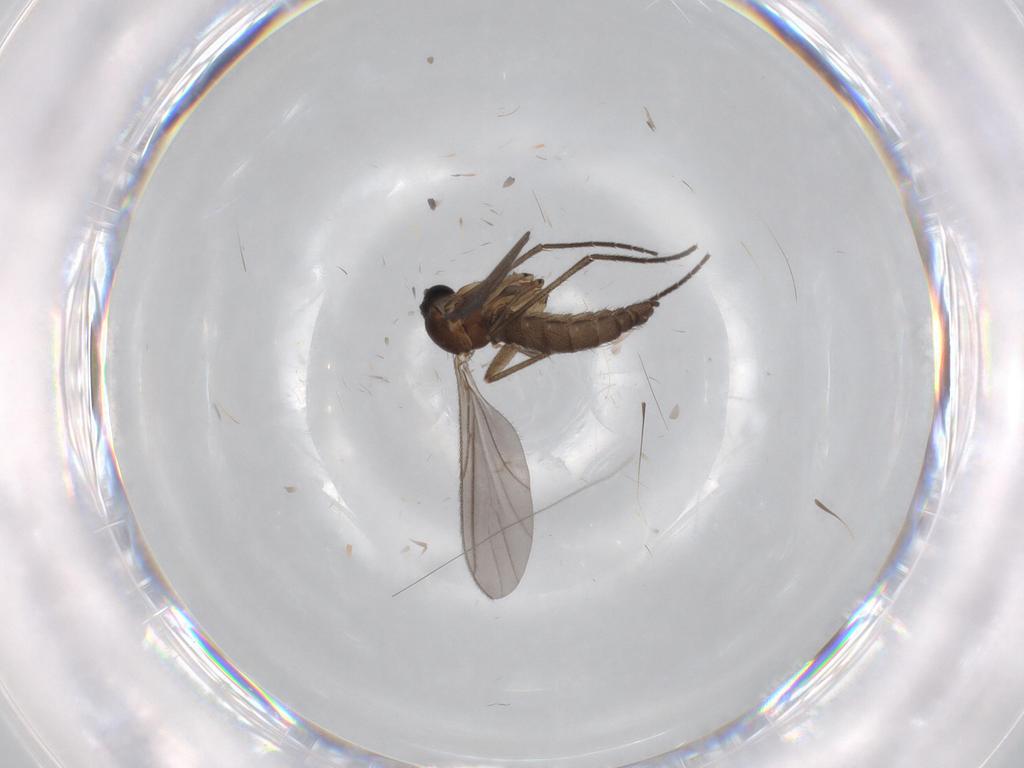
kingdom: Animalia
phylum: Arthropoda
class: Insecta
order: Diptera
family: Sciaridae
